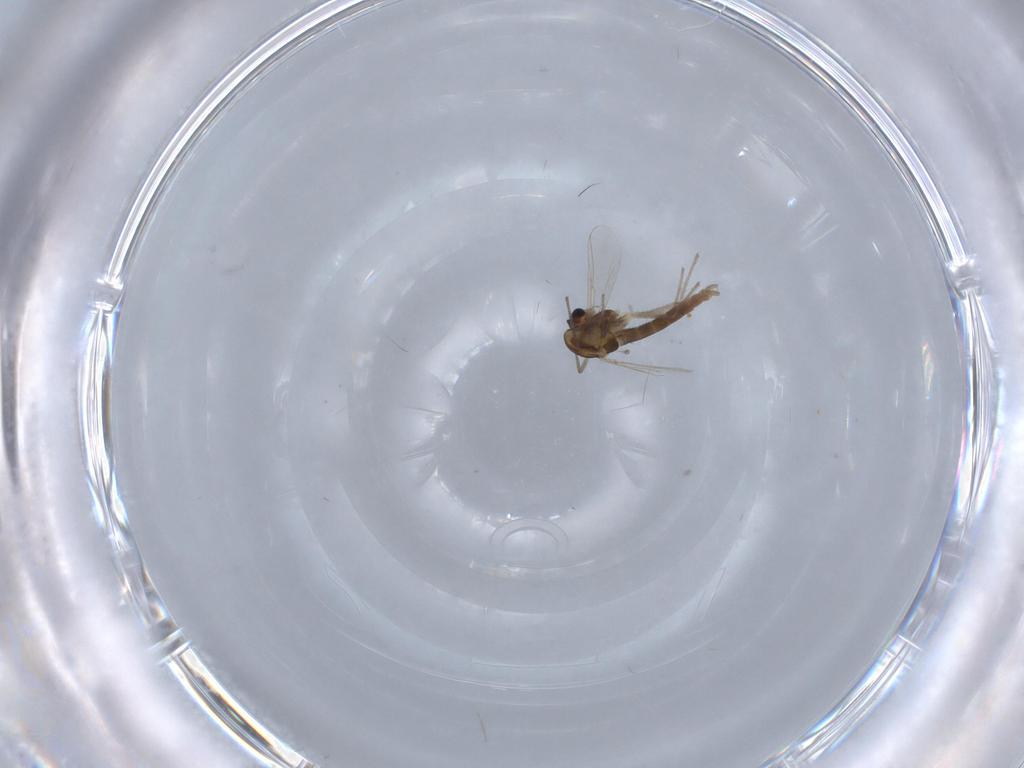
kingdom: Animalia
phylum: Arthropoda
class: Insecta
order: Diptera
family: Chironomidae
